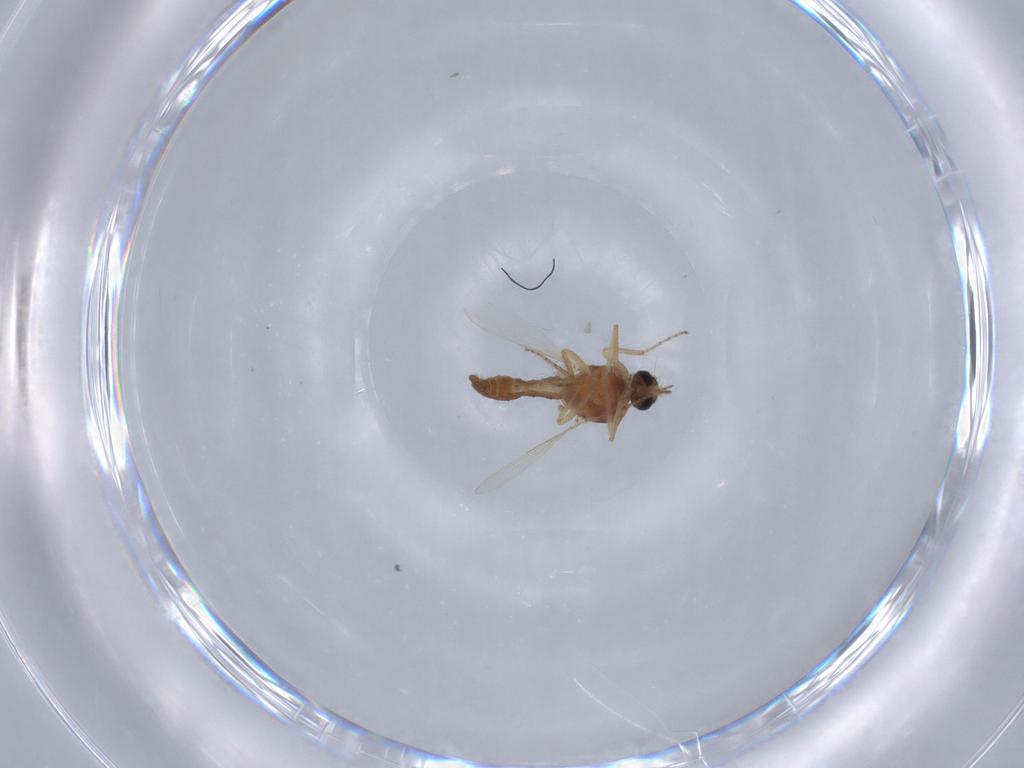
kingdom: Animalia
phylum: Arthropoda
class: Insecta
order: Diptera
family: Ceratopogonidae
